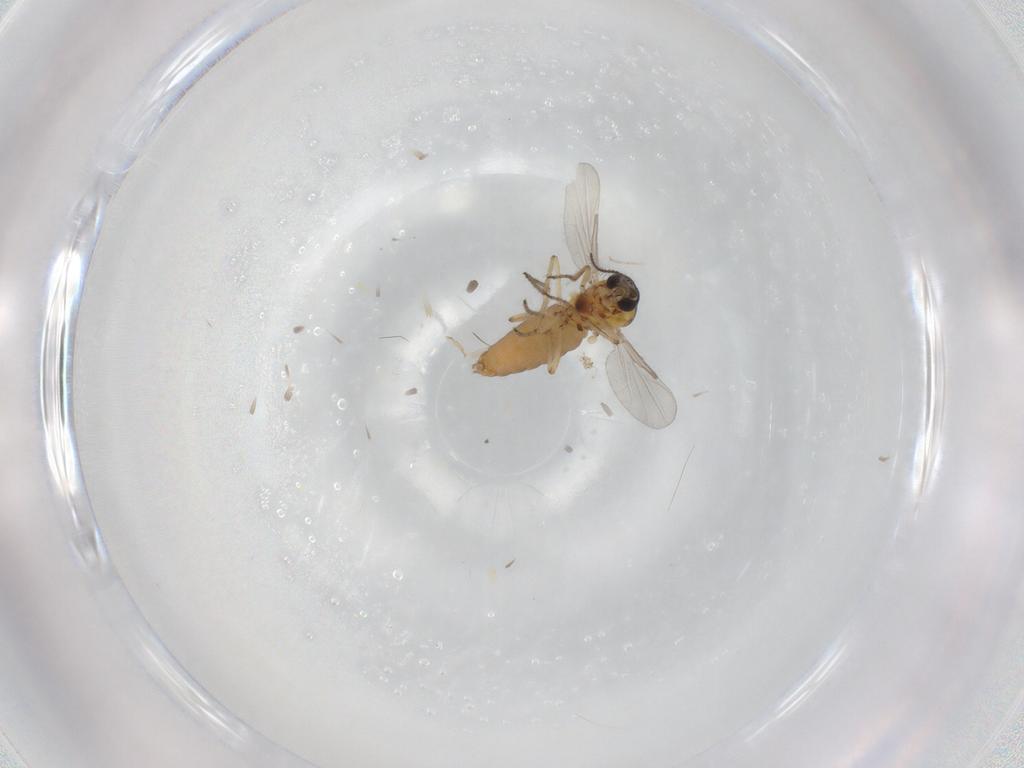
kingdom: Animalia
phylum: Arthropoda
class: Insecta
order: Diptera
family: Ceratopogonidae
